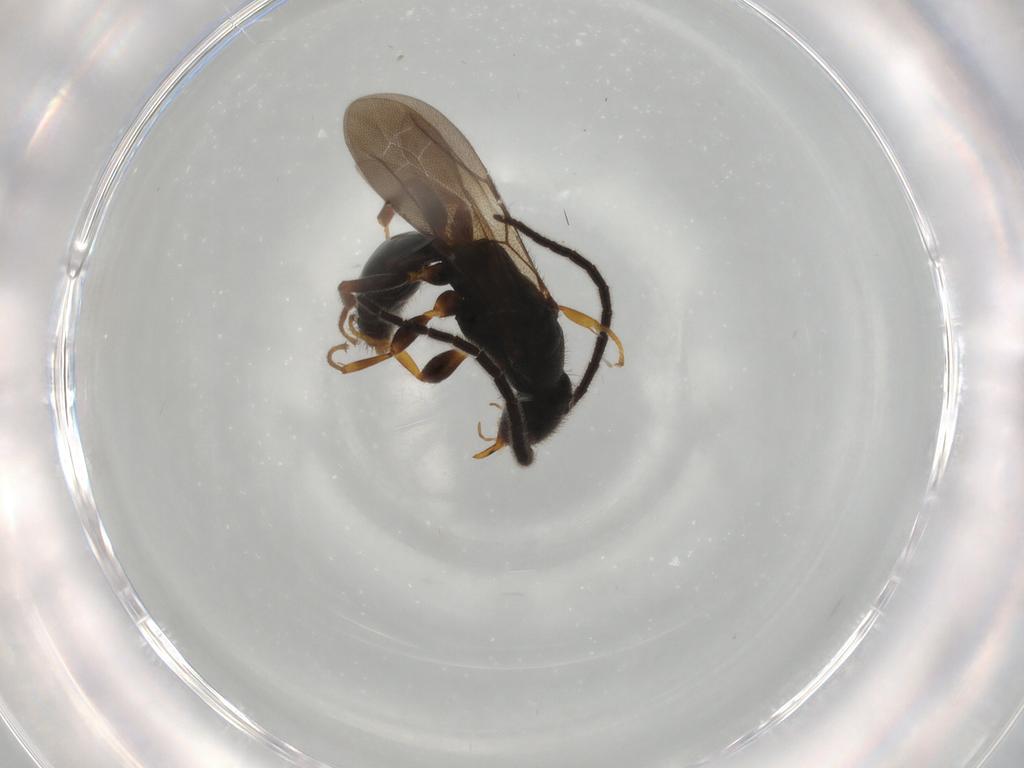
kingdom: Animalia
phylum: Arthropoda
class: Insecta
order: Hymenoptera
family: Bethylidae
